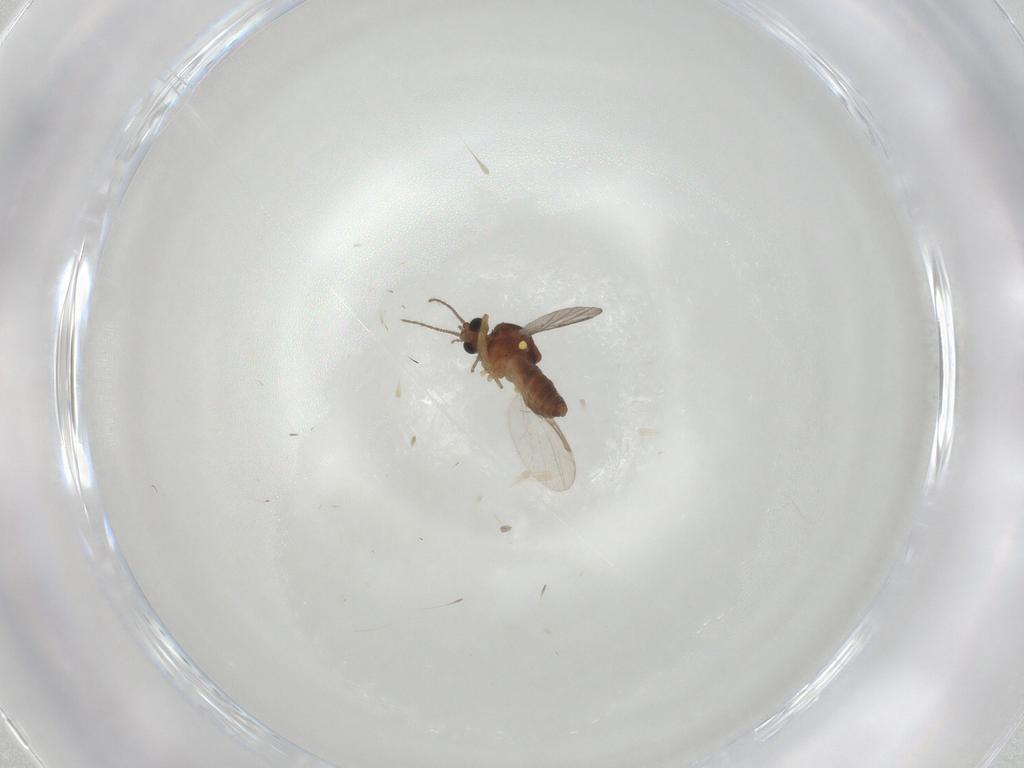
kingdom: Animalia
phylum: Arthropoda
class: Insecta
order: Diptera
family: Ceratopogonidae
